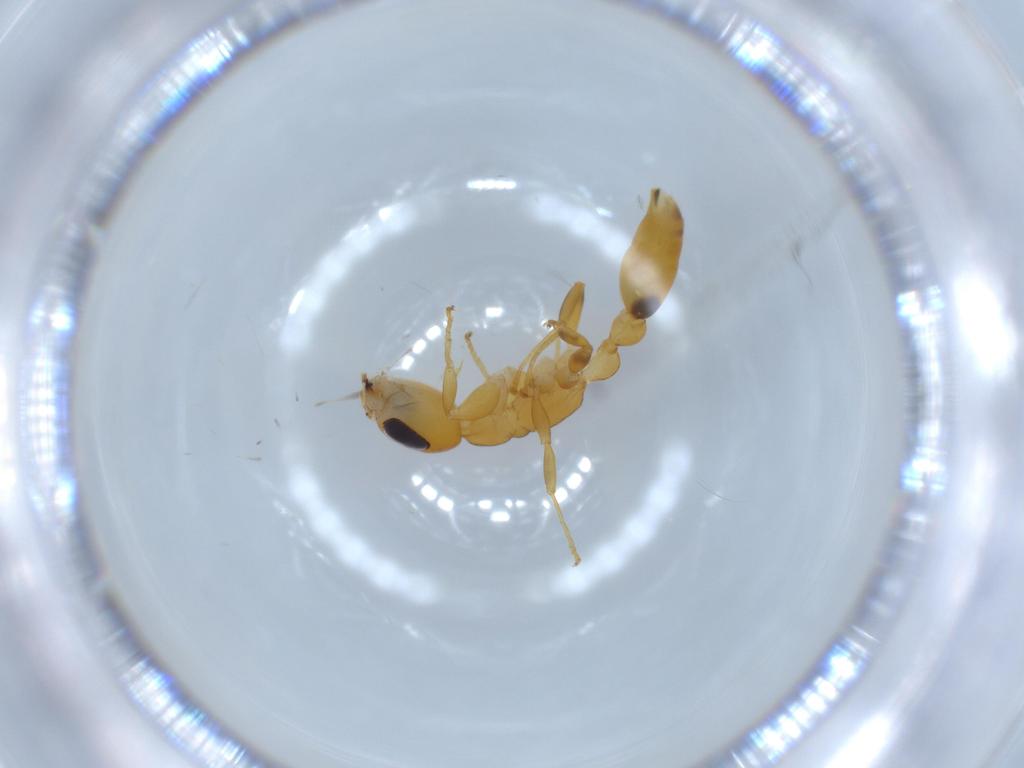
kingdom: Animalia
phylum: Arthropoda
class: Insecta
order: Hymenoptera
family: Formicidae
